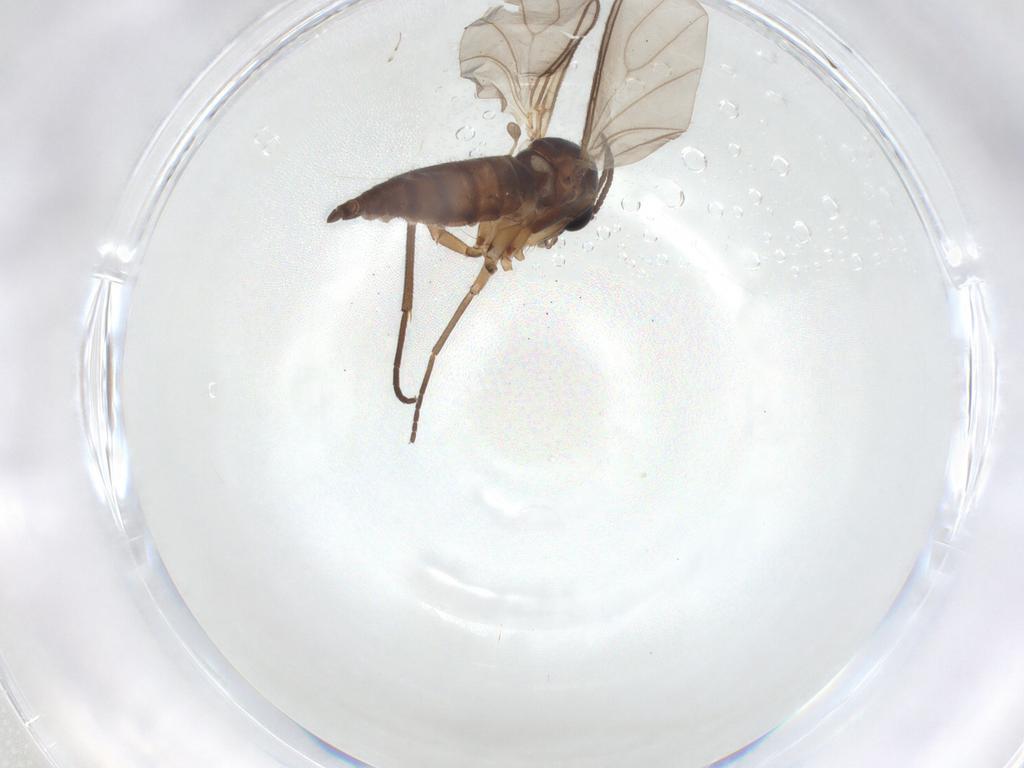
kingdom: Animalia
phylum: Arthropoda
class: Insecta
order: Diptera
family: Sciaridae
